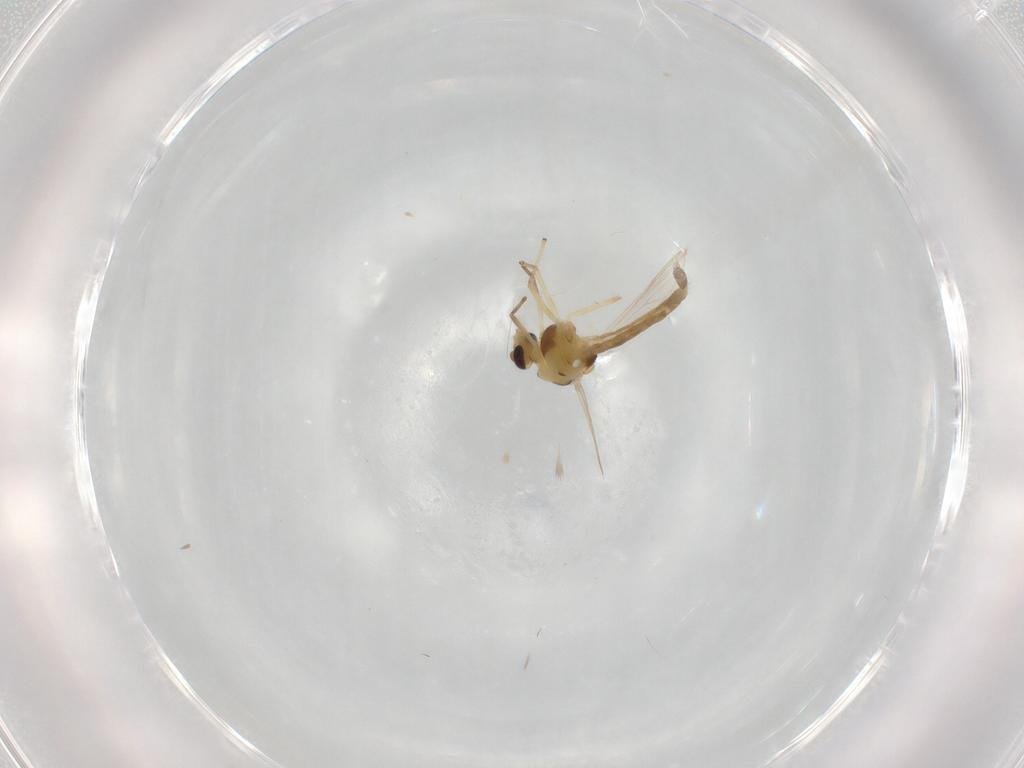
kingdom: Animalia
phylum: Arthropoda
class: Insecta
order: Diptera
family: Chironomidae
